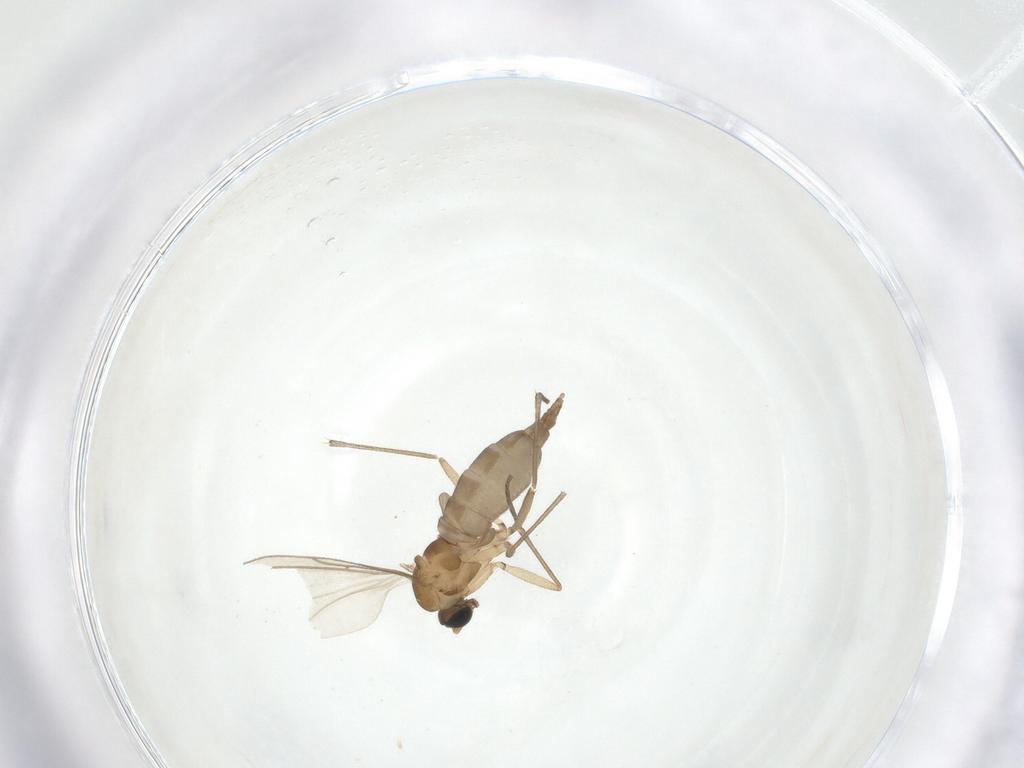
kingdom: Animalia
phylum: Arthropoda
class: Insecta
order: Diptera
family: Sciaridae
